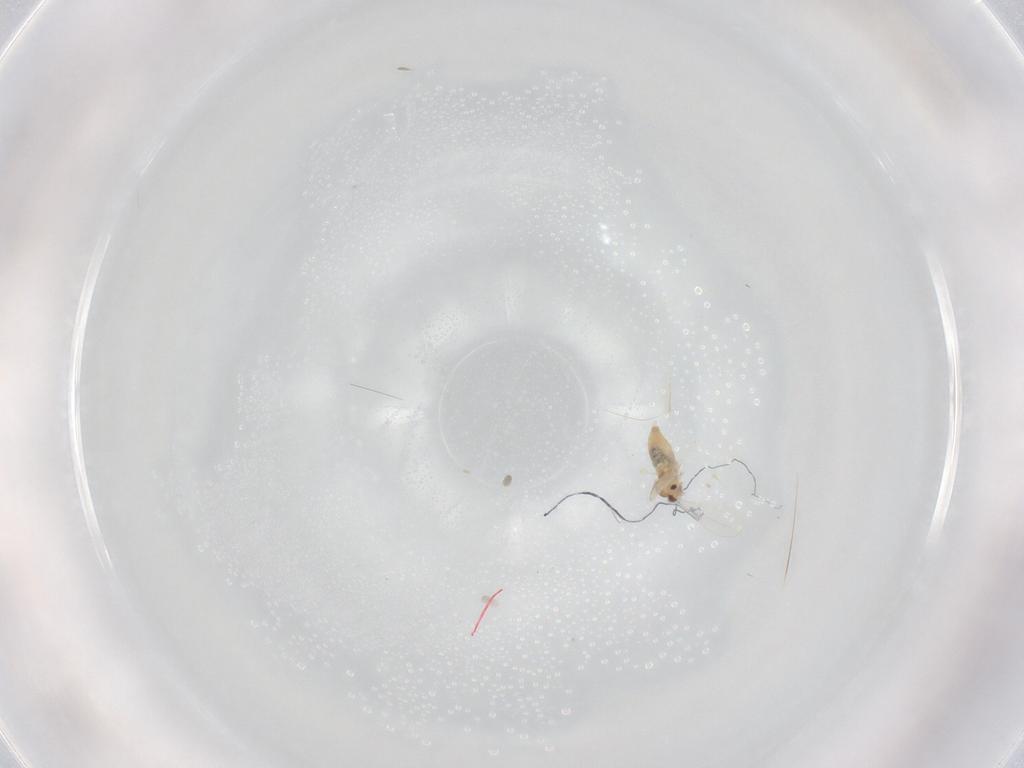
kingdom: Animalia
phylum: Arthropoda
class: Insecta
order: Diptera
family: Cecidomyiidae
